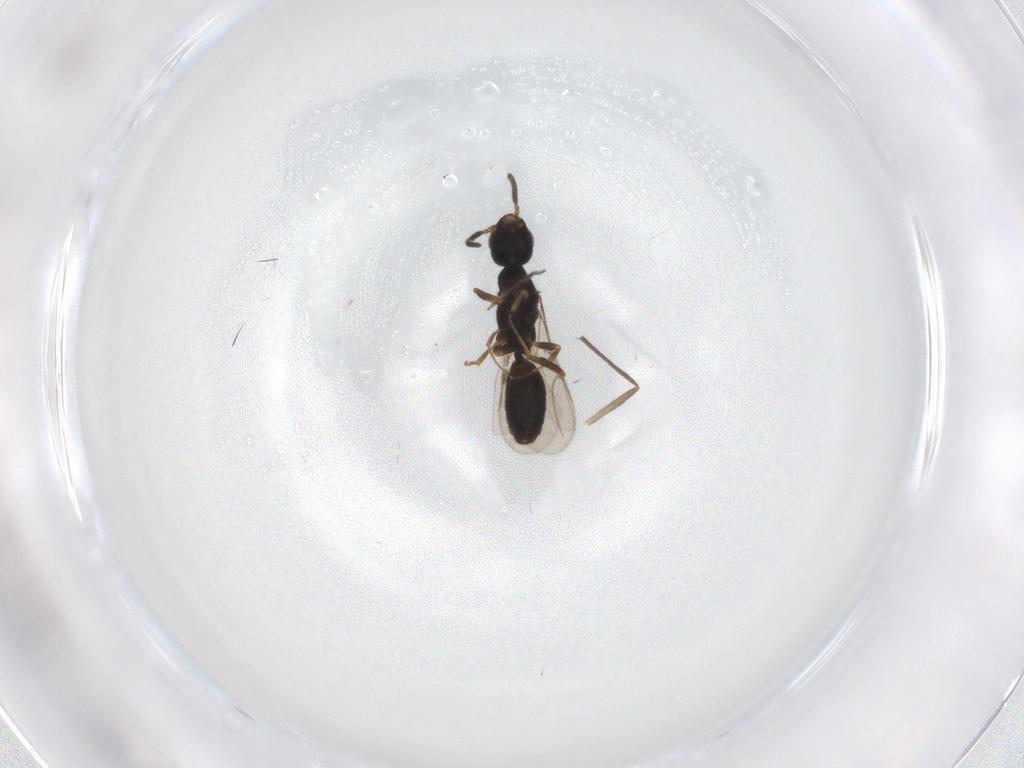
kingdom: Animalia
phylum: Arthropoda
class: Insecta
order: Hymenoptera
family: Bethylidae
